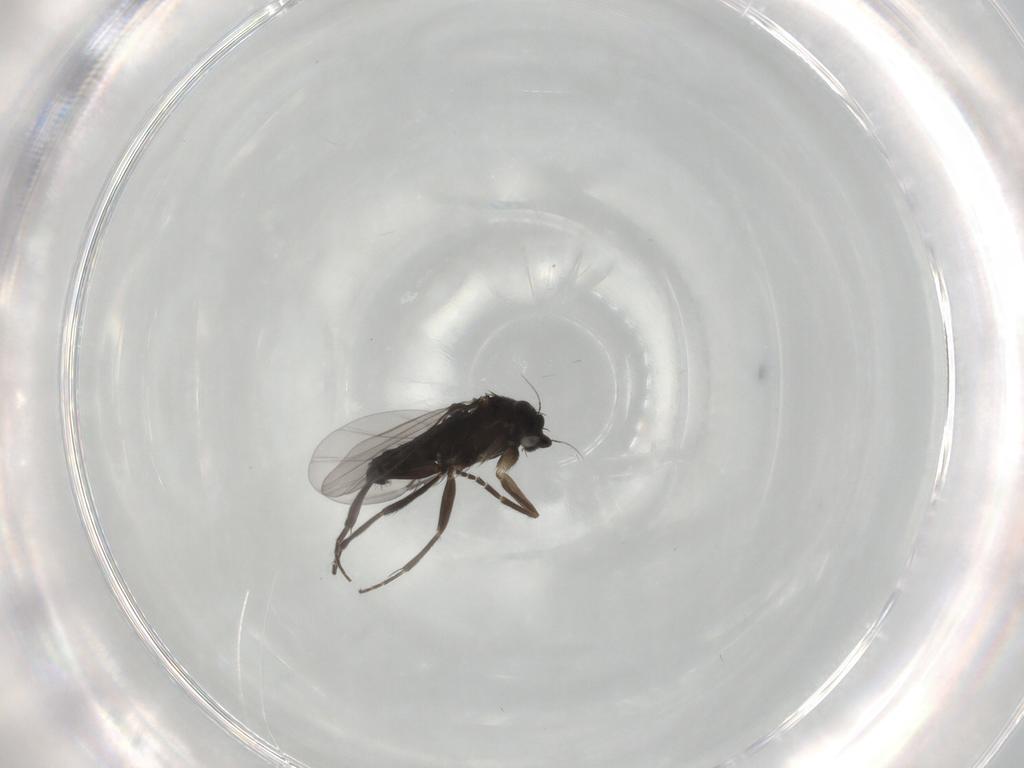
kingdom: Animalia
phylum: Arthropoda
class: Insecta
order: Diptera
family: Phoridae
